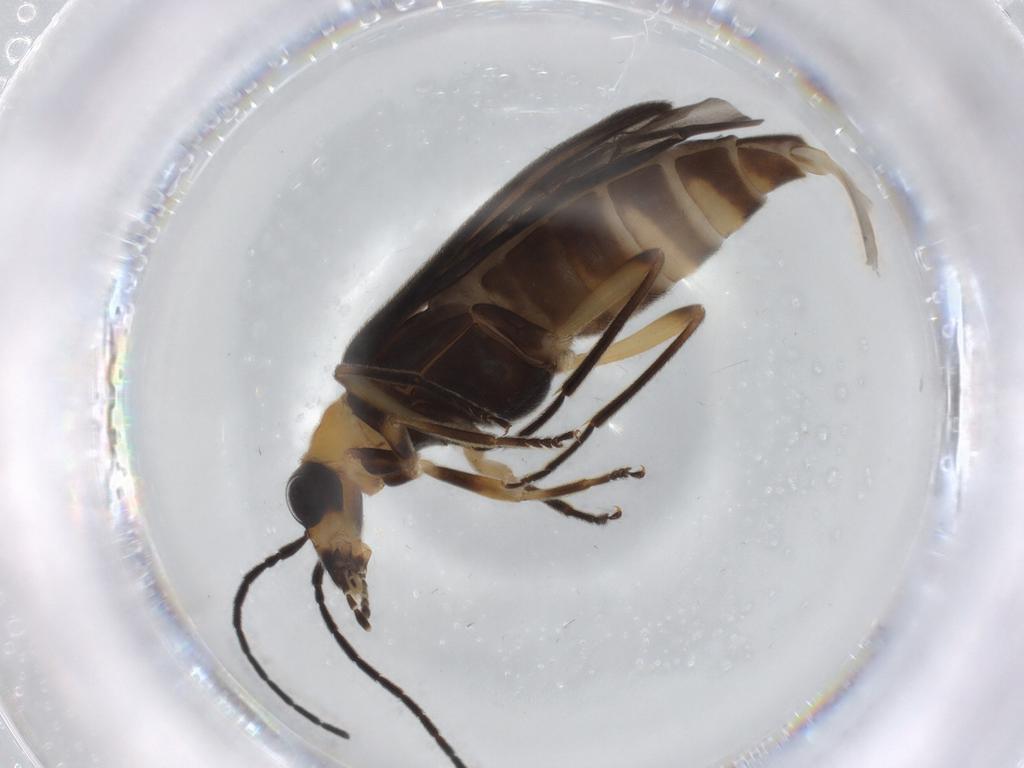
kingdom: Animalia
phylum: Arthropoda
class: Insecta
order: Coleoptera
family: Oedemeridae
